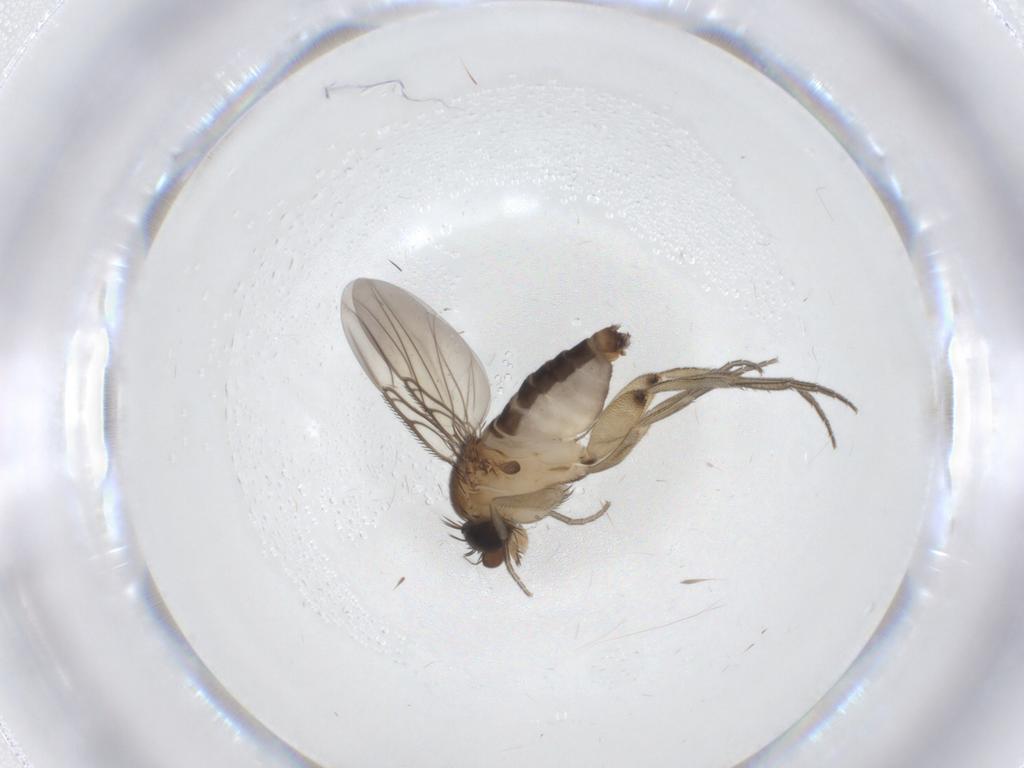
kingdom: Animalia
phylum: Arthropoda
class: Insecta
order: Diptera
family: Phoridae
